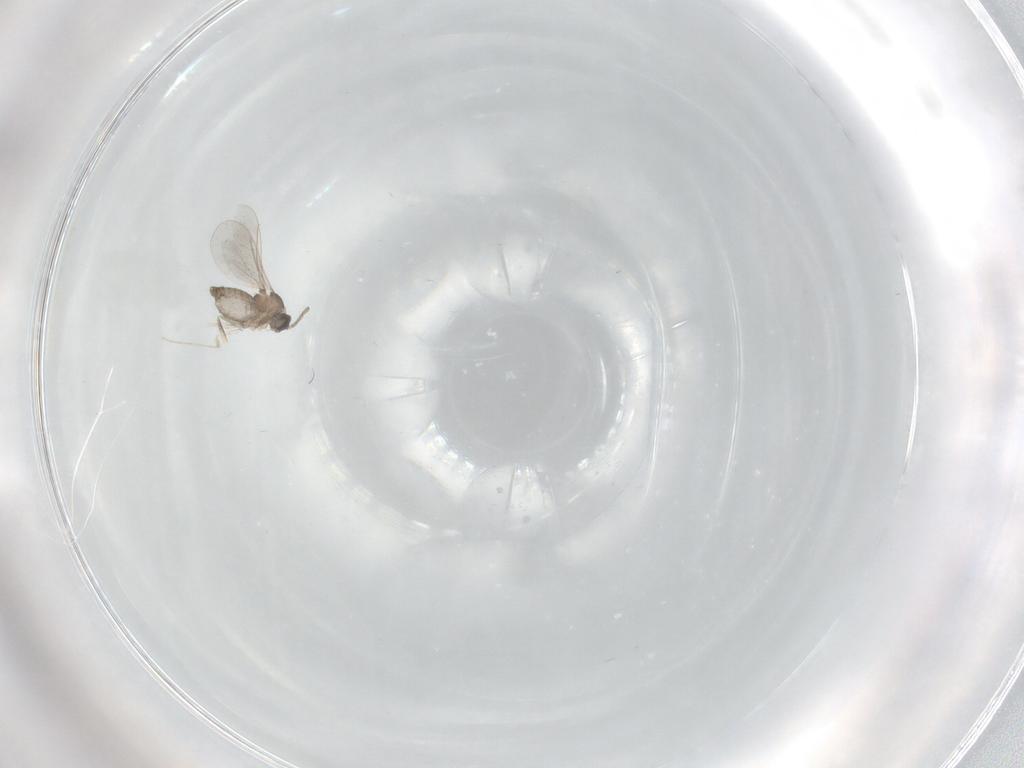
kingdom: Animalia
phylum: Arthropoda
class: Insecta
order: Diptera
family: Cecidomyiidae
